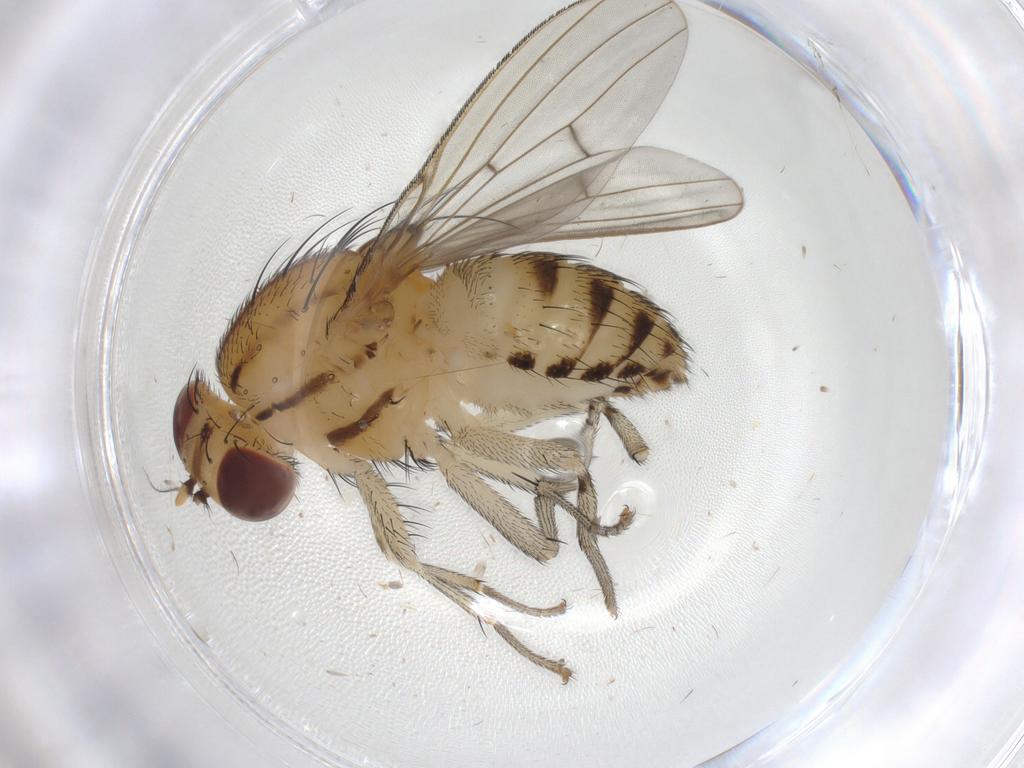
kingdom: Animalia
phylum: Arthropoda
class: Insecta
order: Diptera
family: Lauxaniidae
